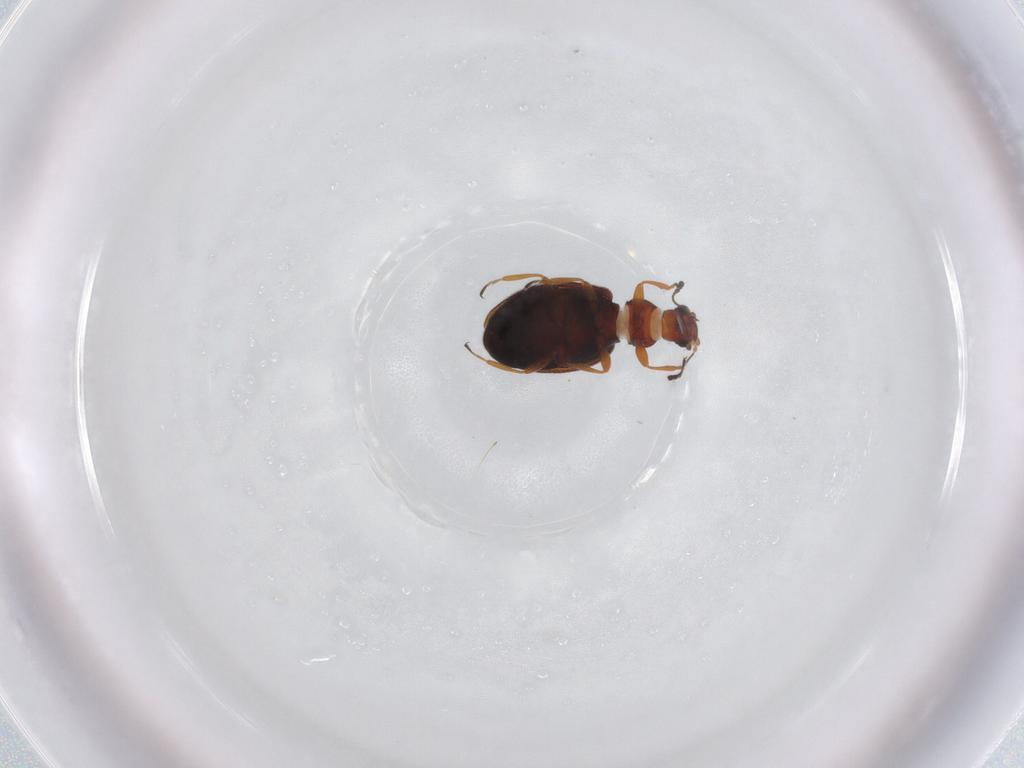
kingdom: Animalia
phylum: Arthropoda
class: Insecta
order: Coleoptera
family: Latridiidae
